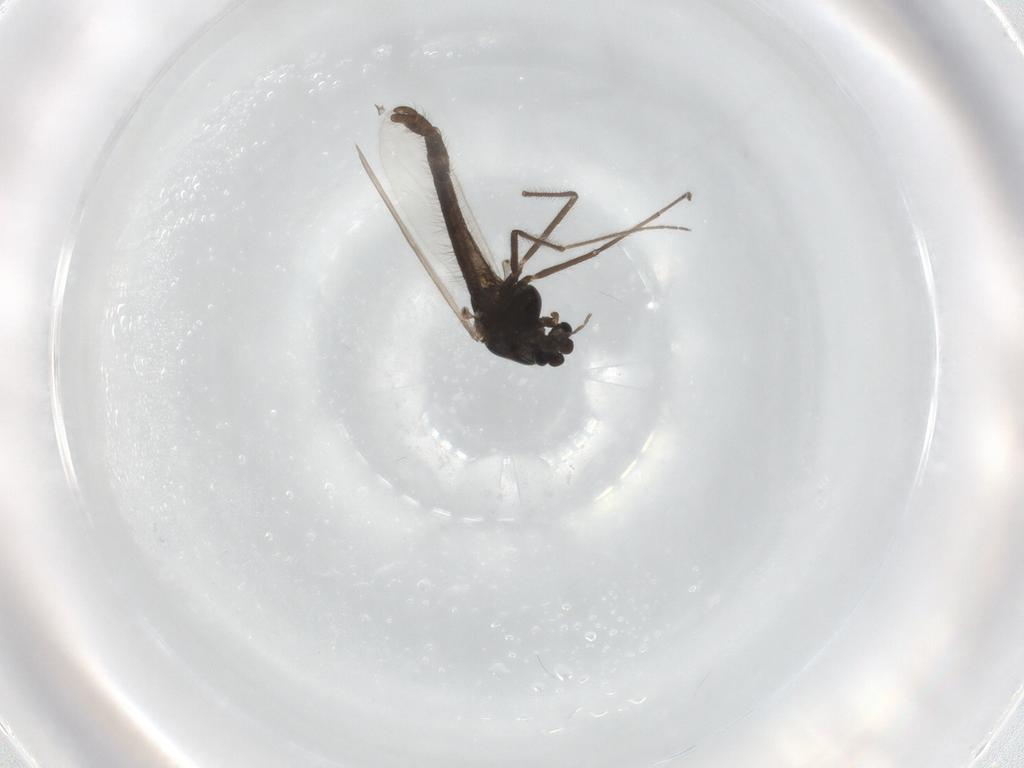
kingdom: Animalia
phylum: Arthropoda
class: Insecta
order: Diptera
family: Chironomidae
